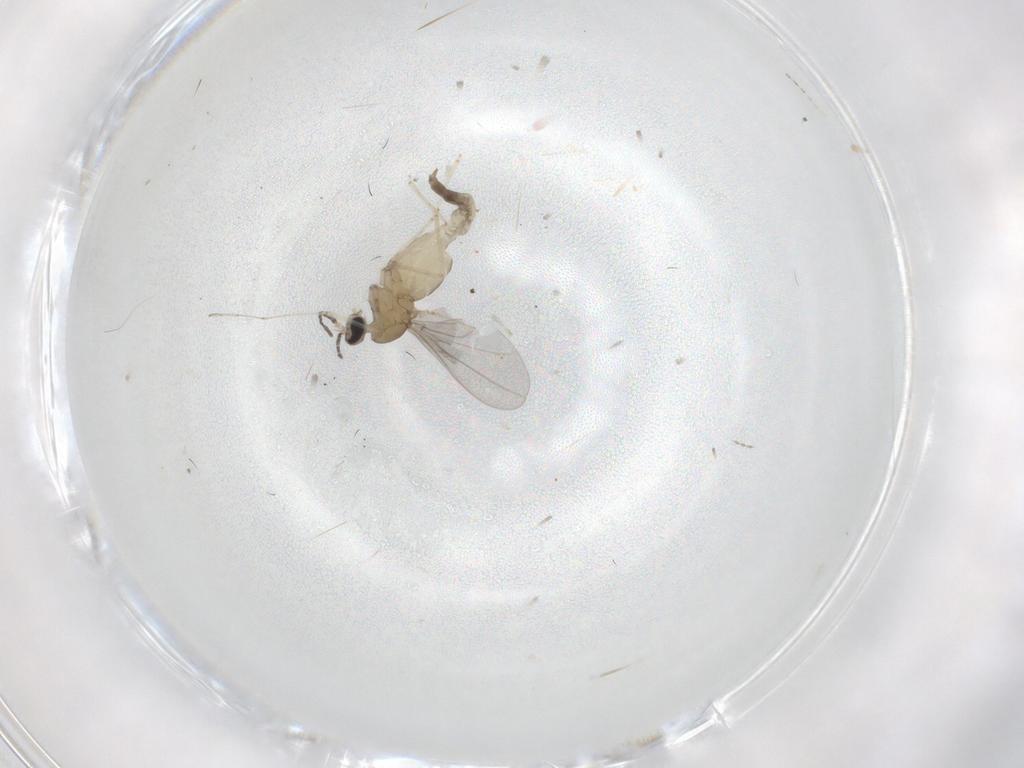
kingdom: Animalia
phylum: Arthropoda
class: Insecta
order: Diptera
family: Cecidomyiidae
